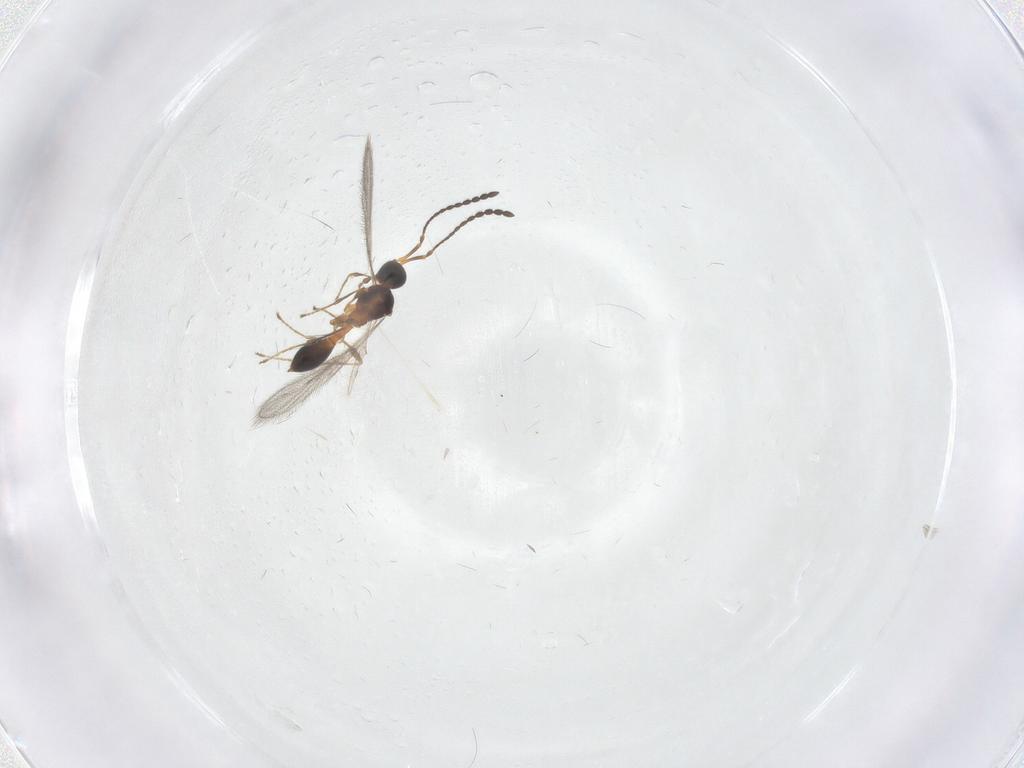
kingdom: Animalia
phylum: Arthropoda
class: Insecta
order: Hymenoptera
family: Diapriidae
